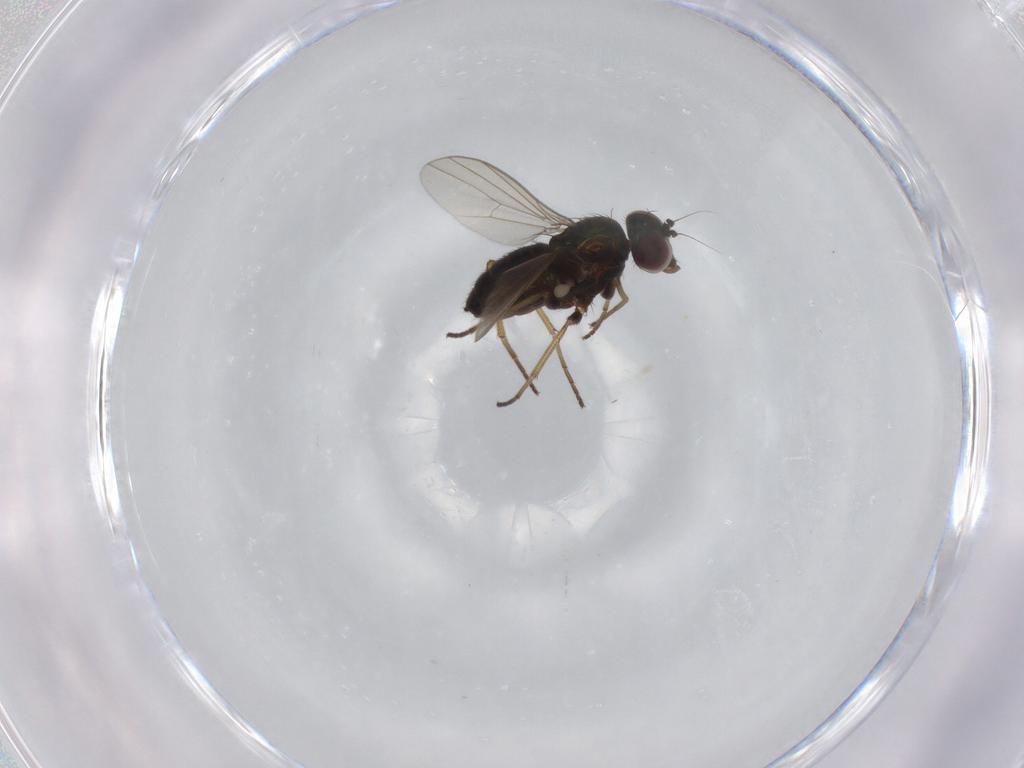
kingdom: Animalia
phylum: Arthropoda
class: Insecta
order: Diptera
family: Dolichopodidae
